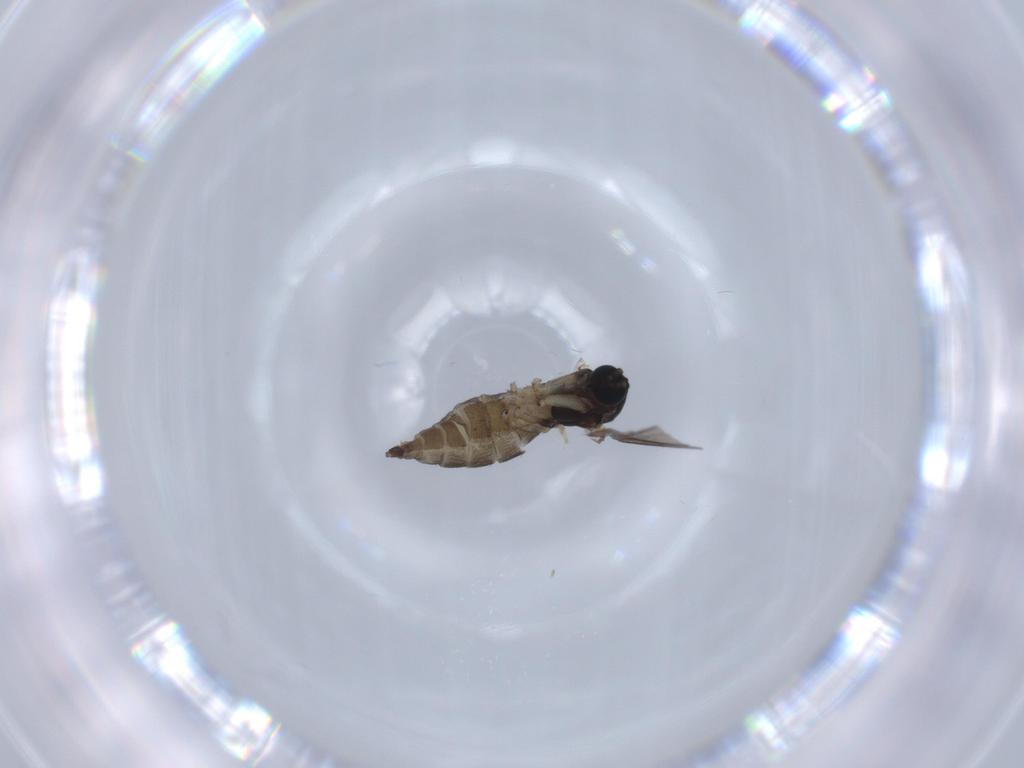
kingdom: Animalia
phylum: Arthropoda
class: Insecta
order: Diptera
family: Sciaridae
